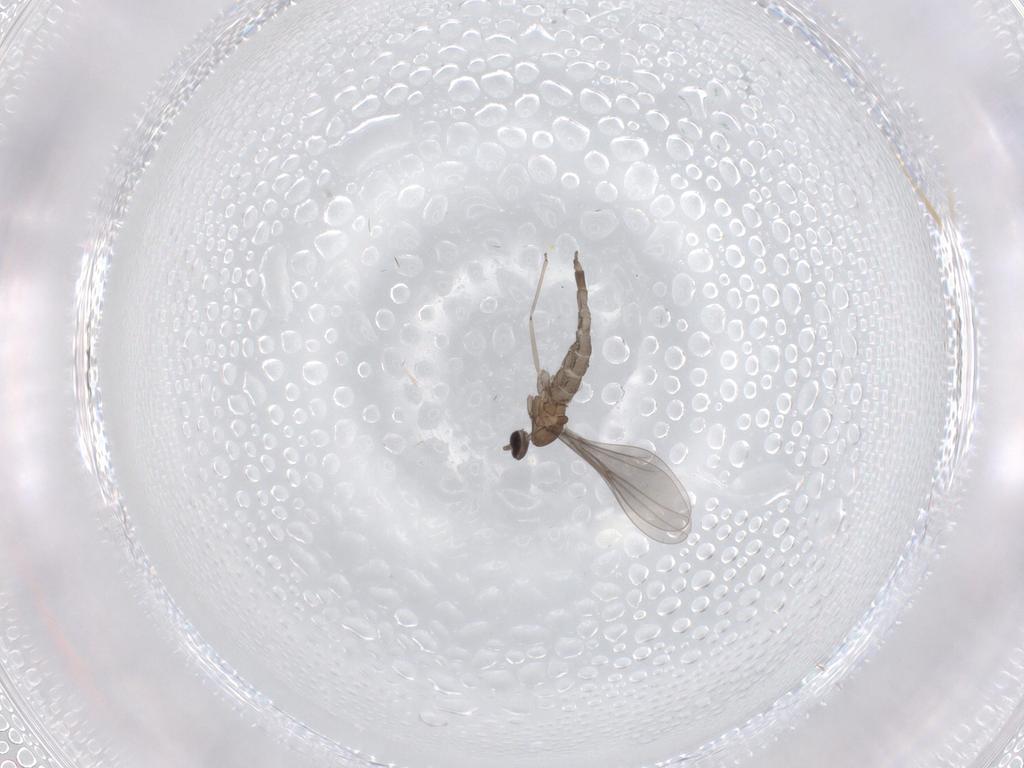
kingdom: Animalia
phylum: Arthropoda
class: Insecta
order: Diptera
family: Cecidomyiidae
